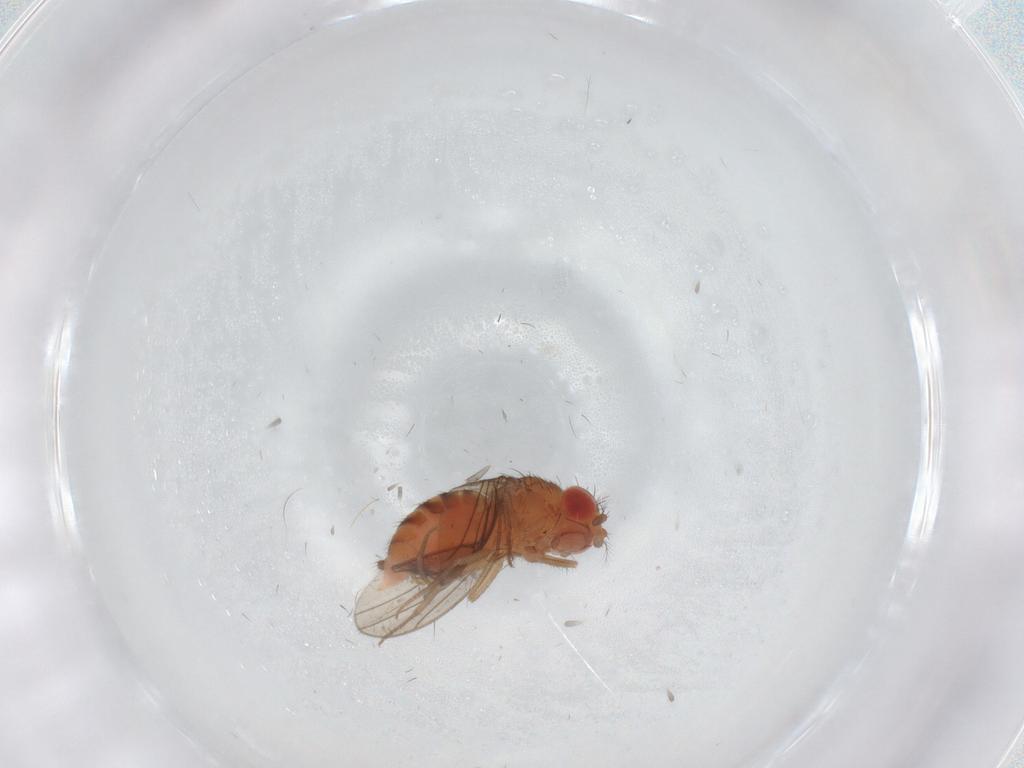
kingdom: Animalia
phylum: Arthropoda
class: Insecta
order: Diptera
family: Drosophilidae
